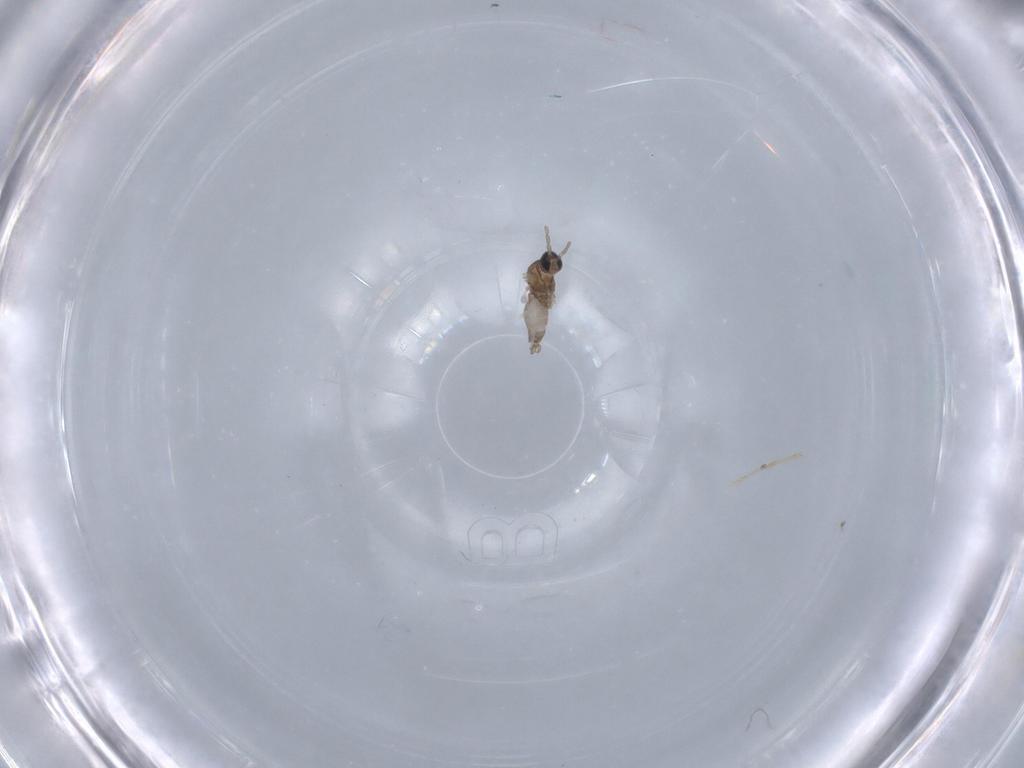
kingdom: Animalia
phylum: Arthropoda
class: Insecta
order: Diptera
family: Cecidomyiidae
